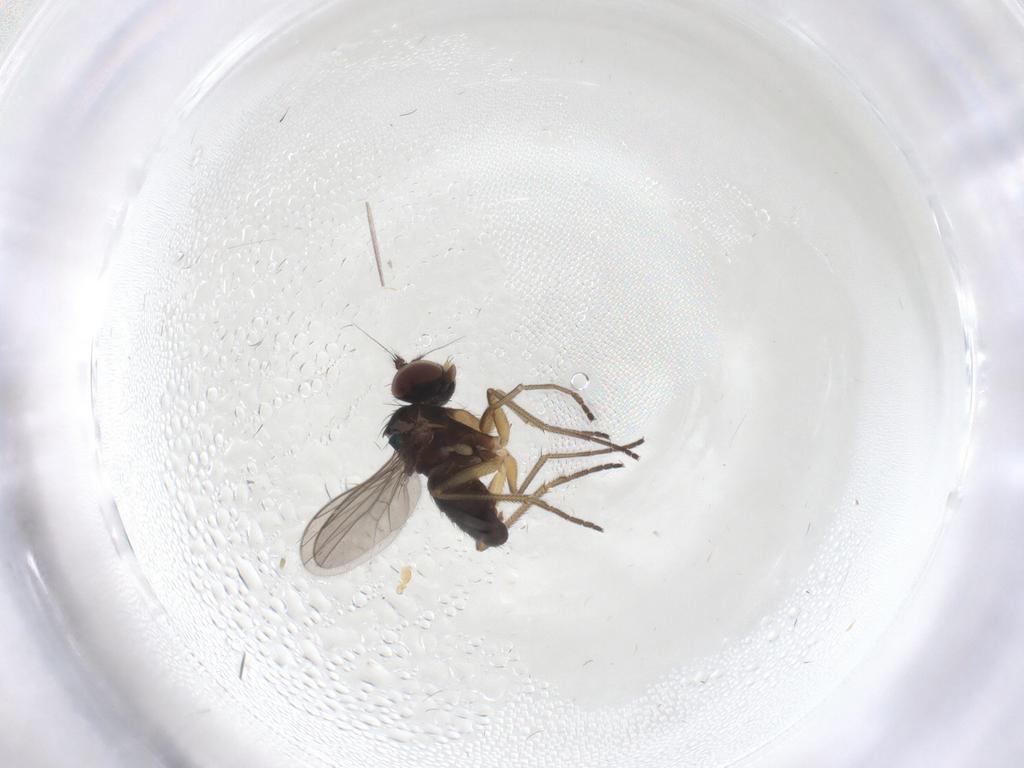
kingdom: Animalia
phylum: Arthropoda
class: Insecta
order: Diptera
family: Dolichopodidae
